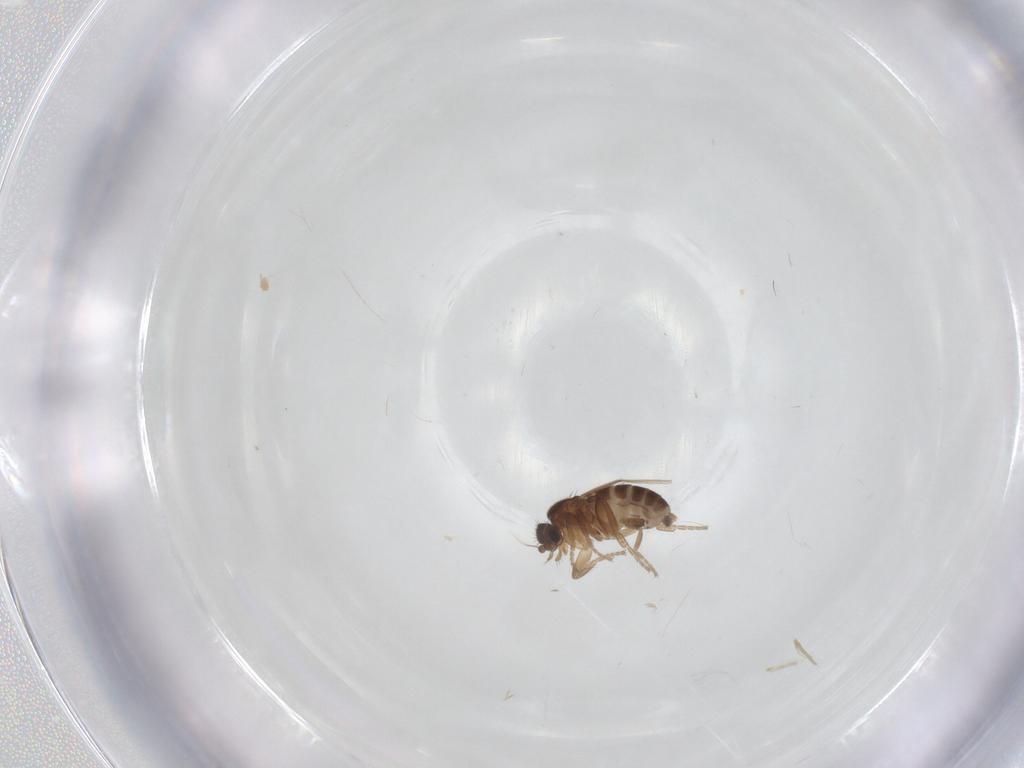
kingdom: Animalia
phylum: Arthropoda
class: Insecta
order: Diptera
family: Phoridae
